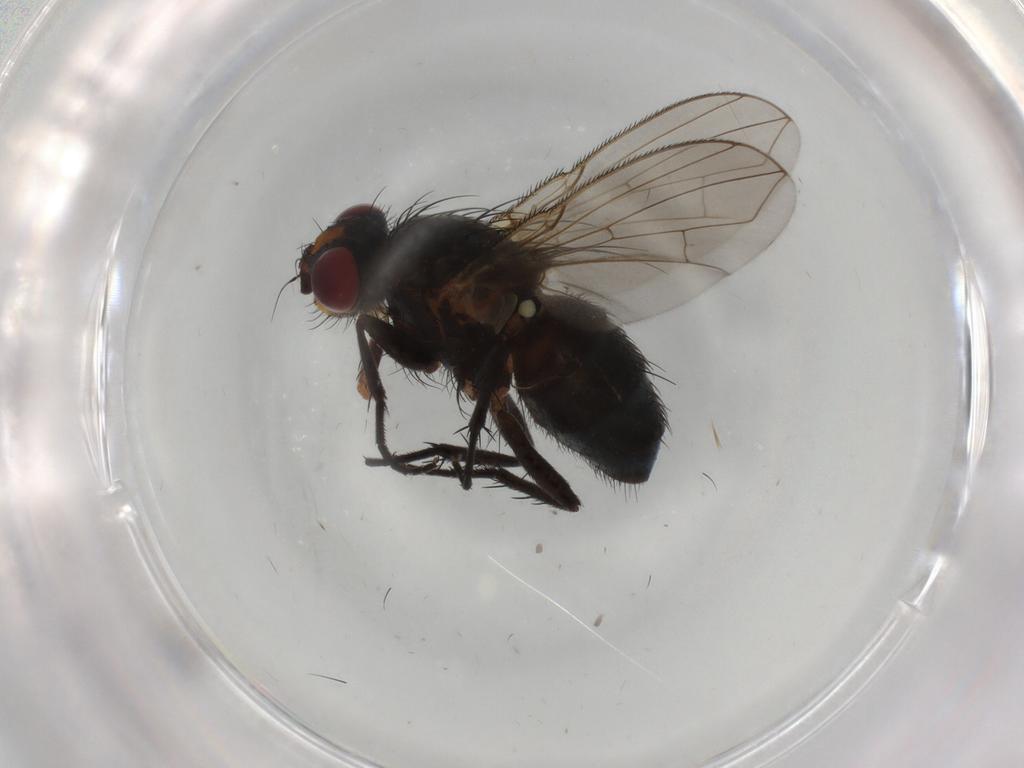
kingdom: Animalia
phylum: Arthropoda
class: Insecta
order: Diptera
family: Calliphoridae
